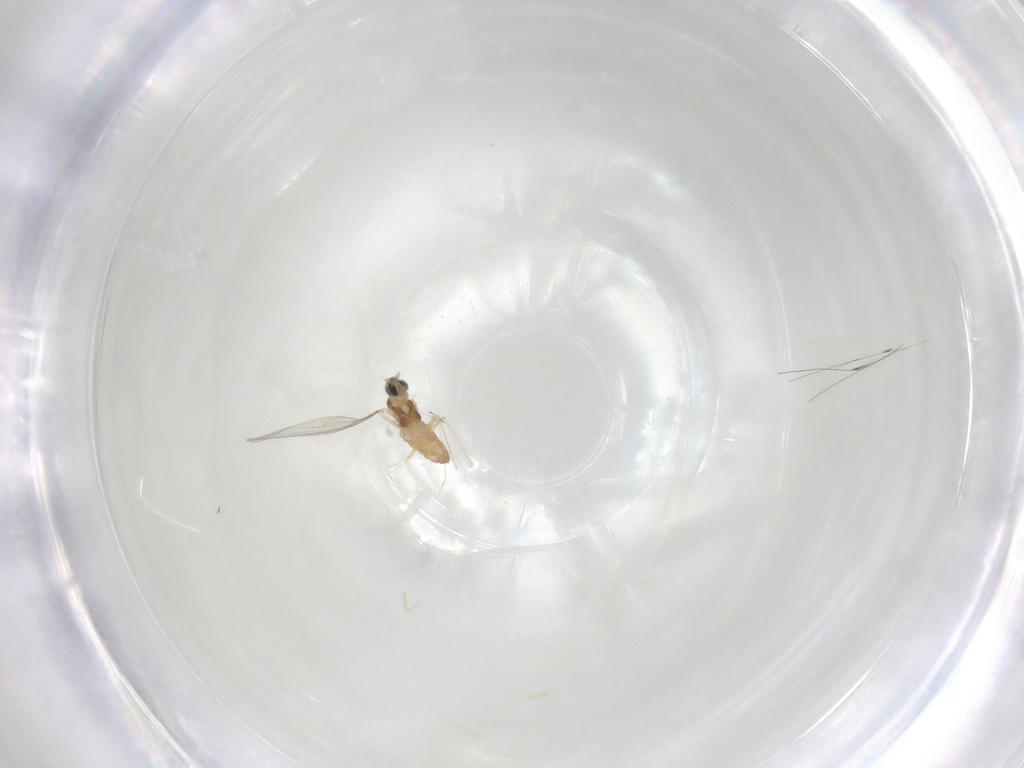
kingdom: Animalia
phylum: Arthropoda
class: Insecta
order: Diptera
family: Cecidomyiidae
